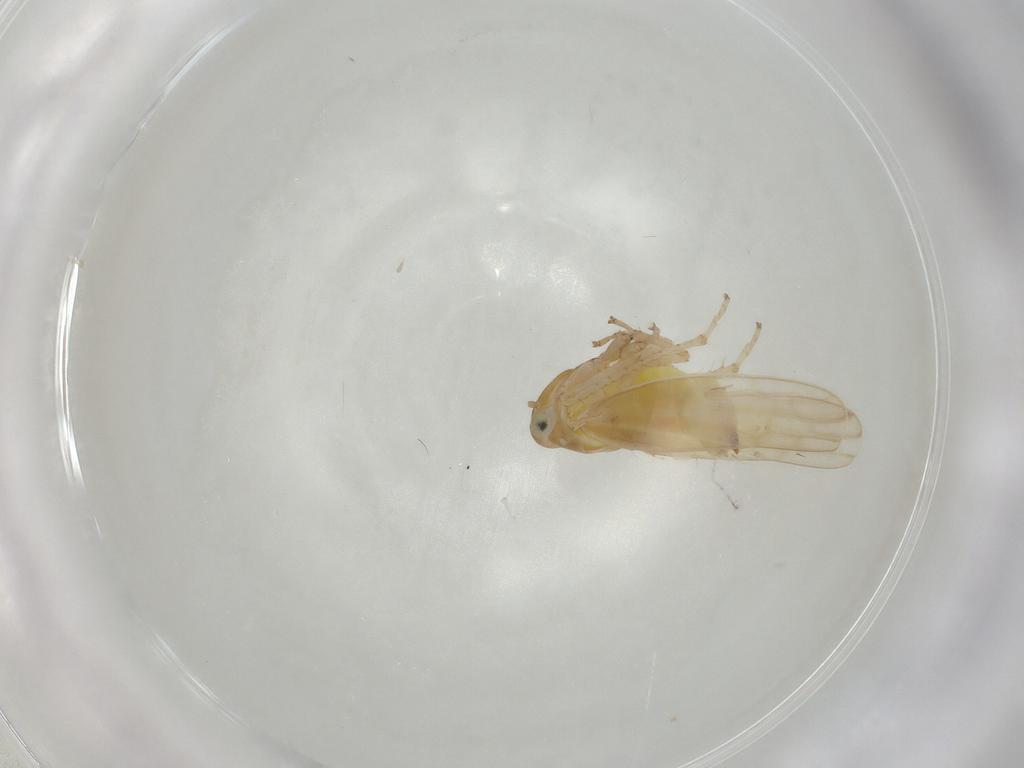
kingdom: Animalia
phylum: Arthropoda
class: Insecta
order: Hemiptera
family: Cicadellidae
